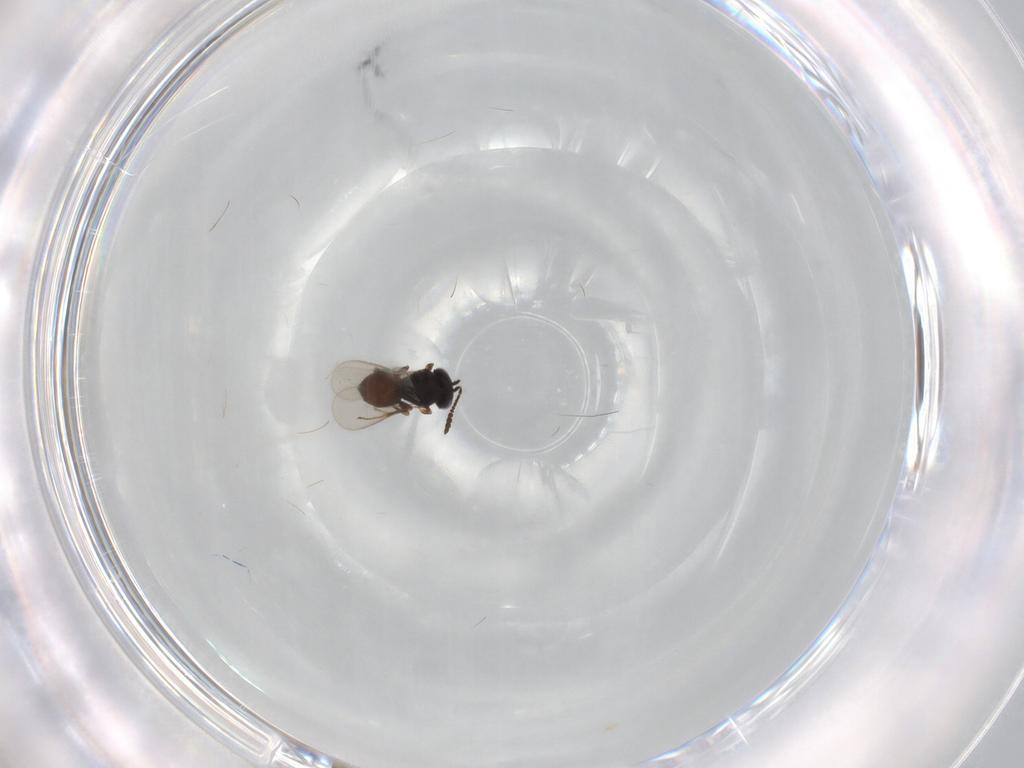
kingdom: Animalia
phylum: Arthropoda
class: Insecta
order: Hymenoptera
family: Scelionidae
